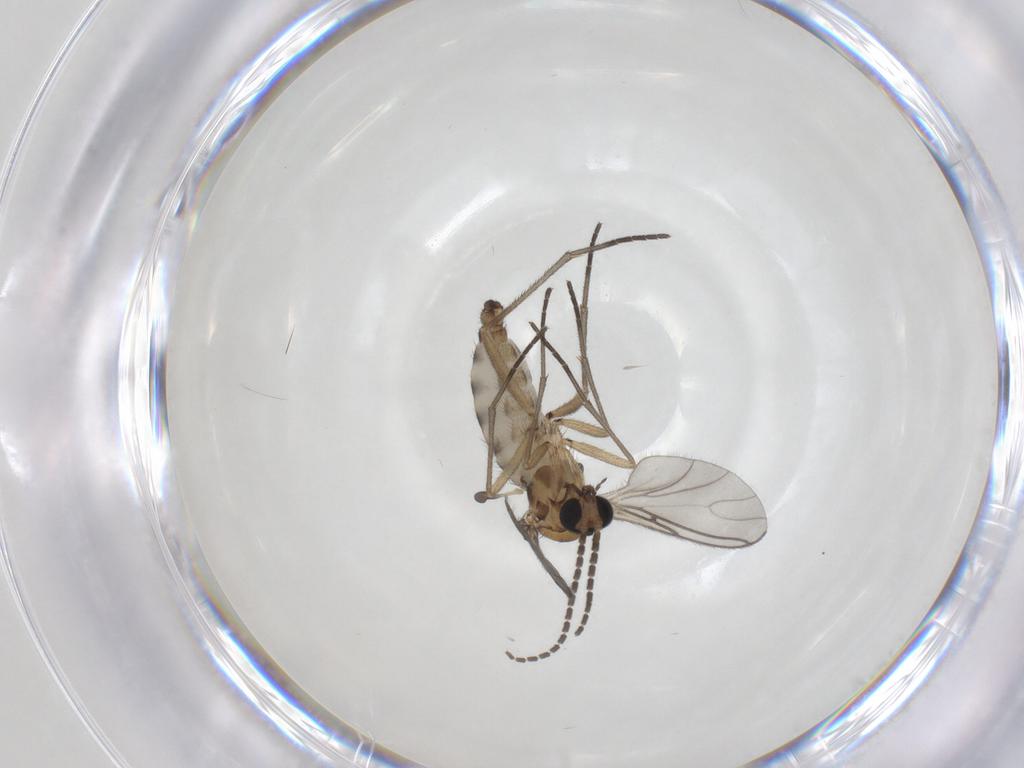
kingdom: Animalia
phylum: Arthropoda
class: Insecta
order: Diptera
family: Sciaridae
